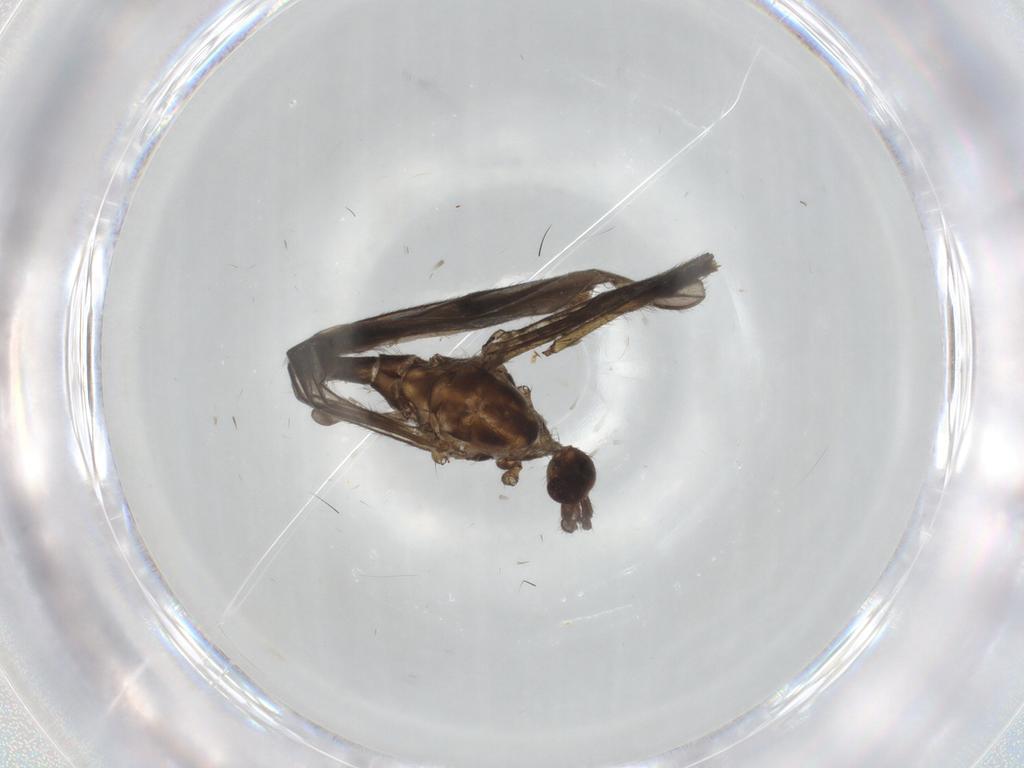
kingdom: Animalia
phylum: Arthropoda
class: Insecta
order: Diptera
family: Limoniidae
